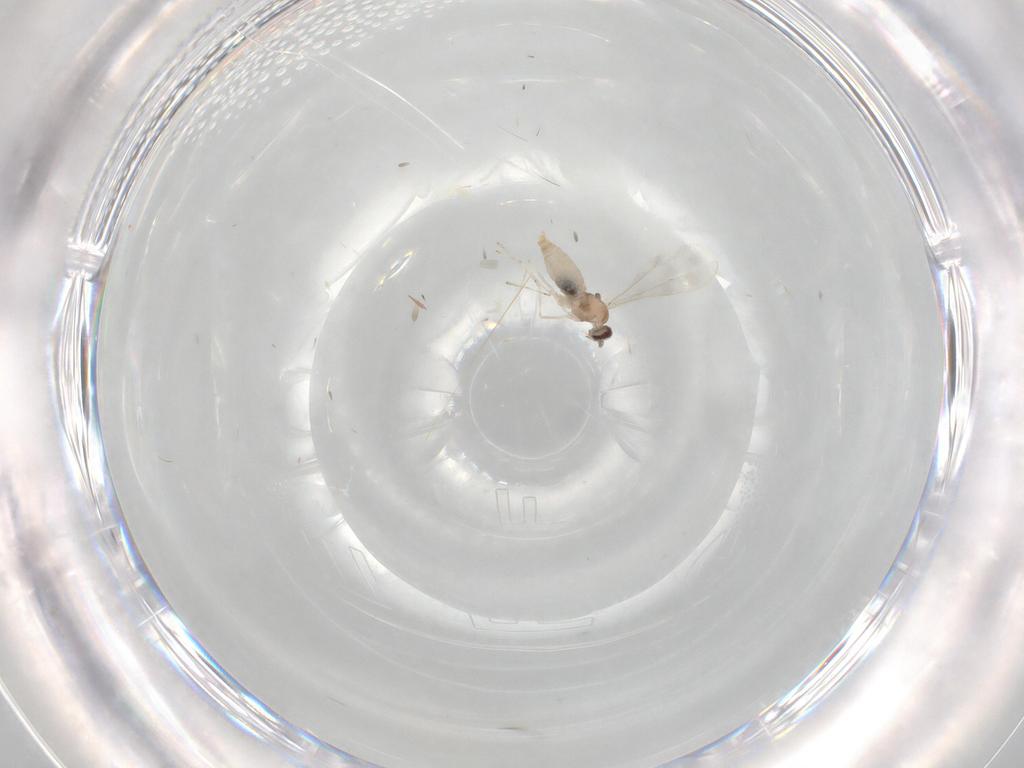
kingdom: Animalia
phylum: Arthropoda
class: Insecta
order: Diptera
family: Cecidomyiidae
